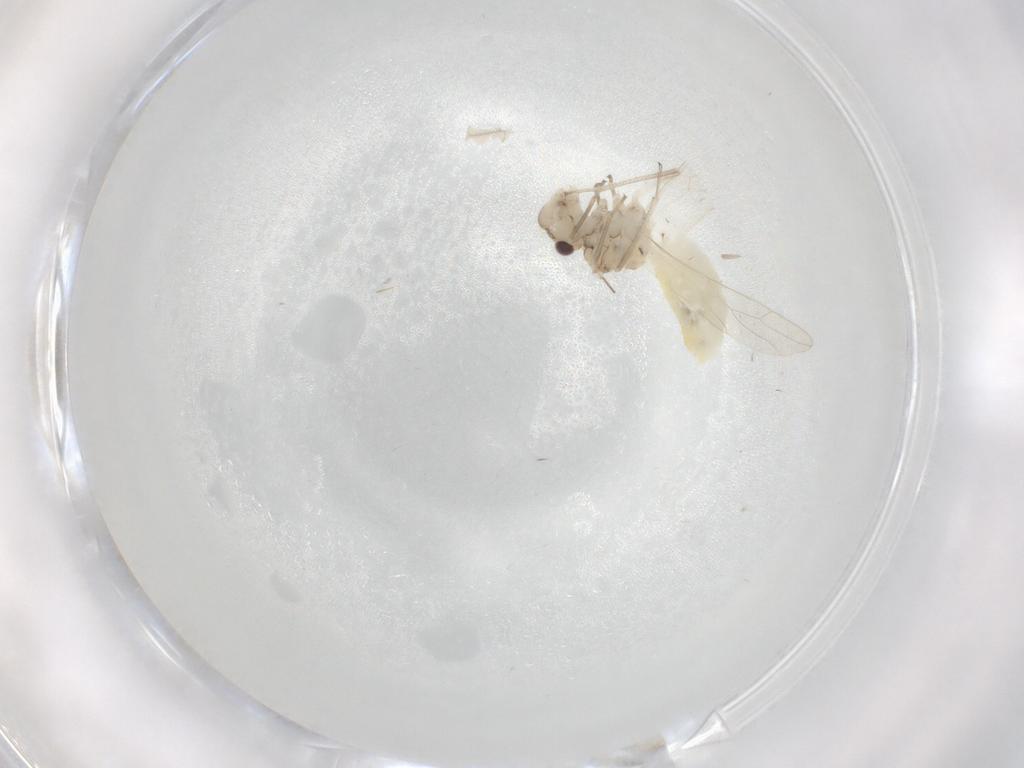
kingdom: Animalia
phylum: Arthropoda
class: Insecta
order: Psocodea
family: Caeciliusidae
